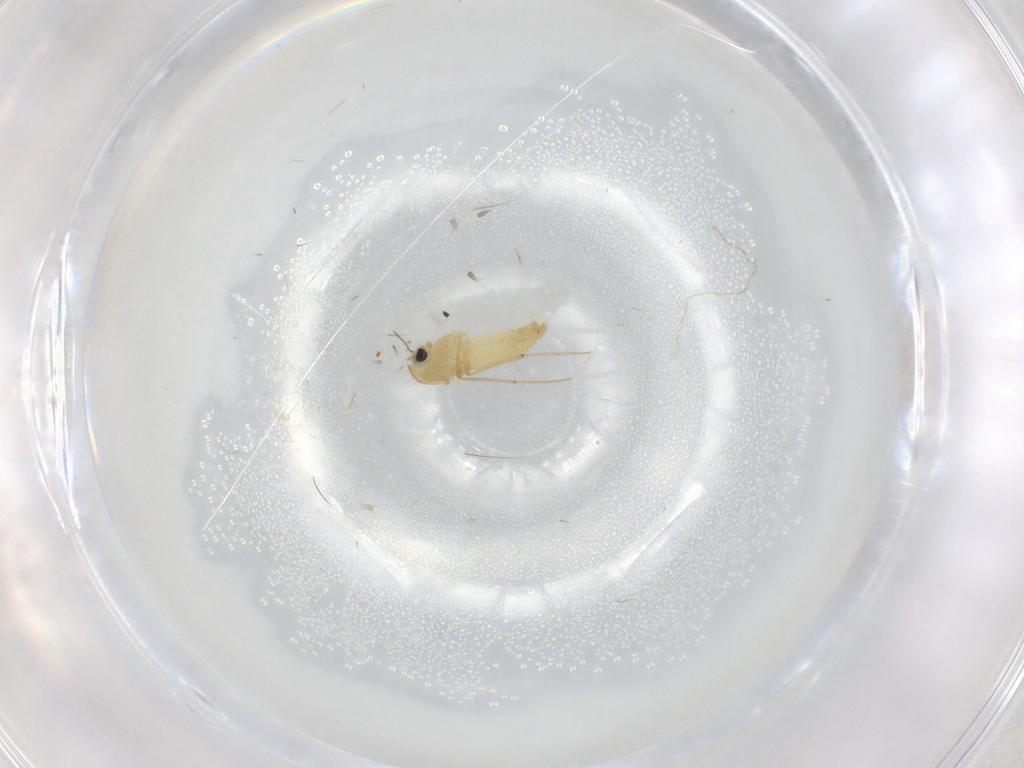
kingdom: Animalia
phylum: Arthropoda
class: Insecta
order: Diptera
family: Chironomidae
